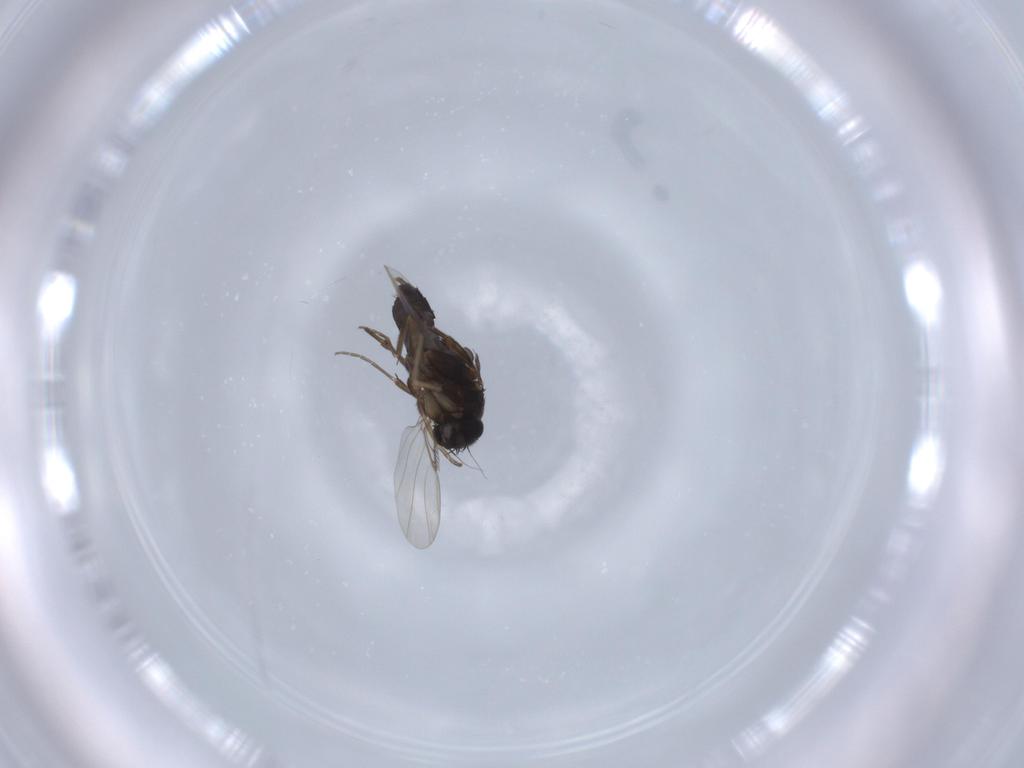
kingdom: Animalia
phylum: Arthropoda
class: Insecta
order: Diptera
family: Phoridae
